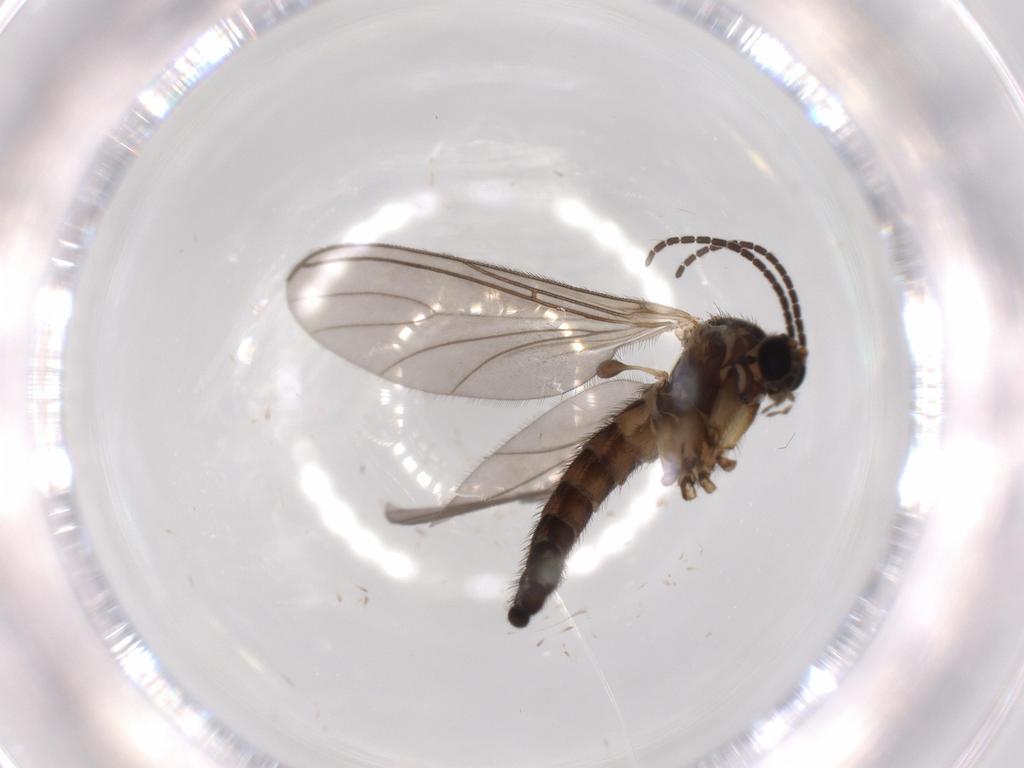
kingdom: Animalia
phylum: Arthropoda
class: Insecta
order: Diptera
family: Sciaridae
